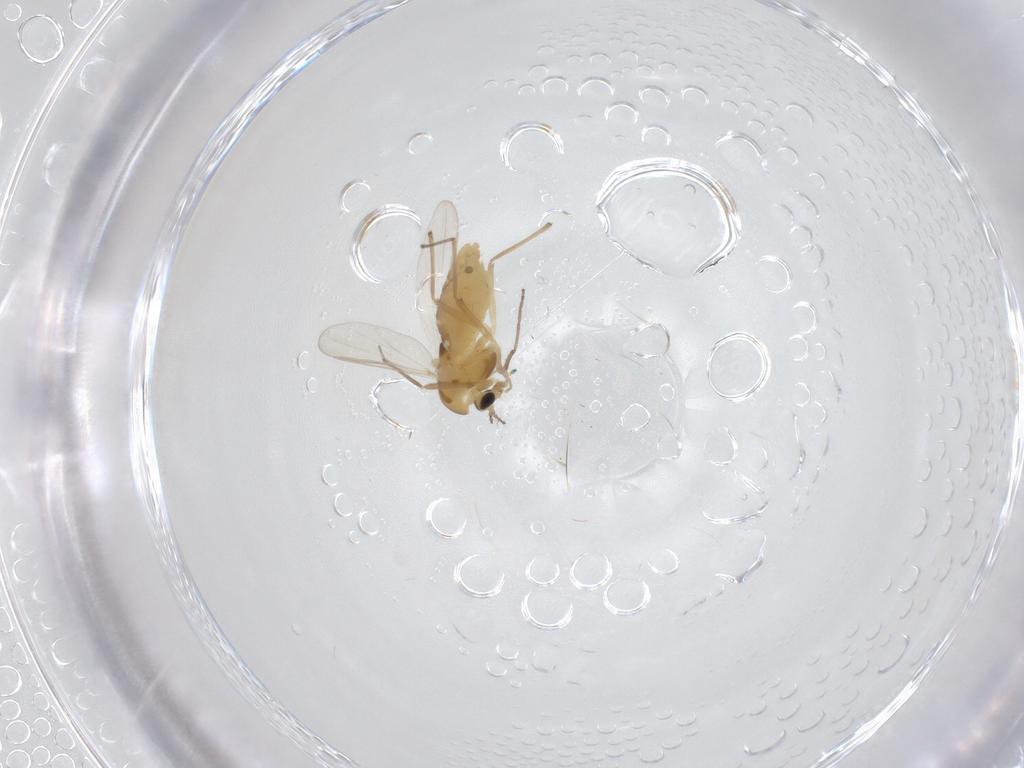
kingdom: Animalia
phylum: Arthropoda
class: Insecta
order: Diptera
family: Chironomidae
